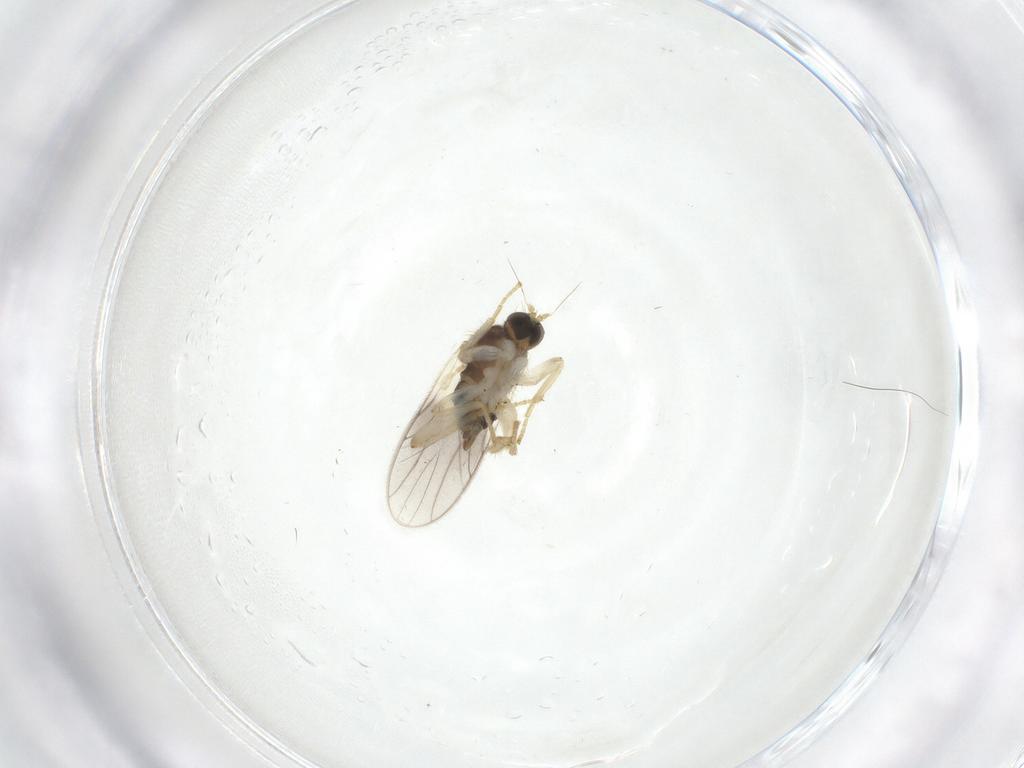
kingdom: Animalia
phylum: Arthropoda
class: Insecta
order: Diptera
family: Hybotidae
